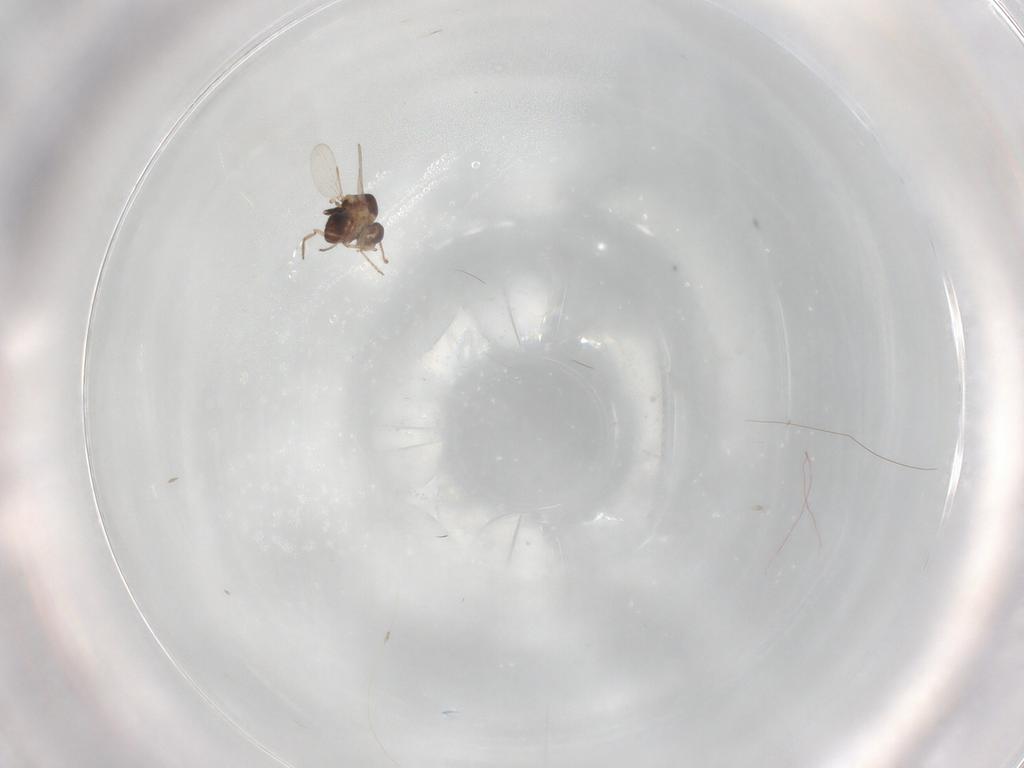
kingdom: Animalia
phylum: Arthropoda
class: Insecta
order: Diptera
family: Ceratopogonidae
